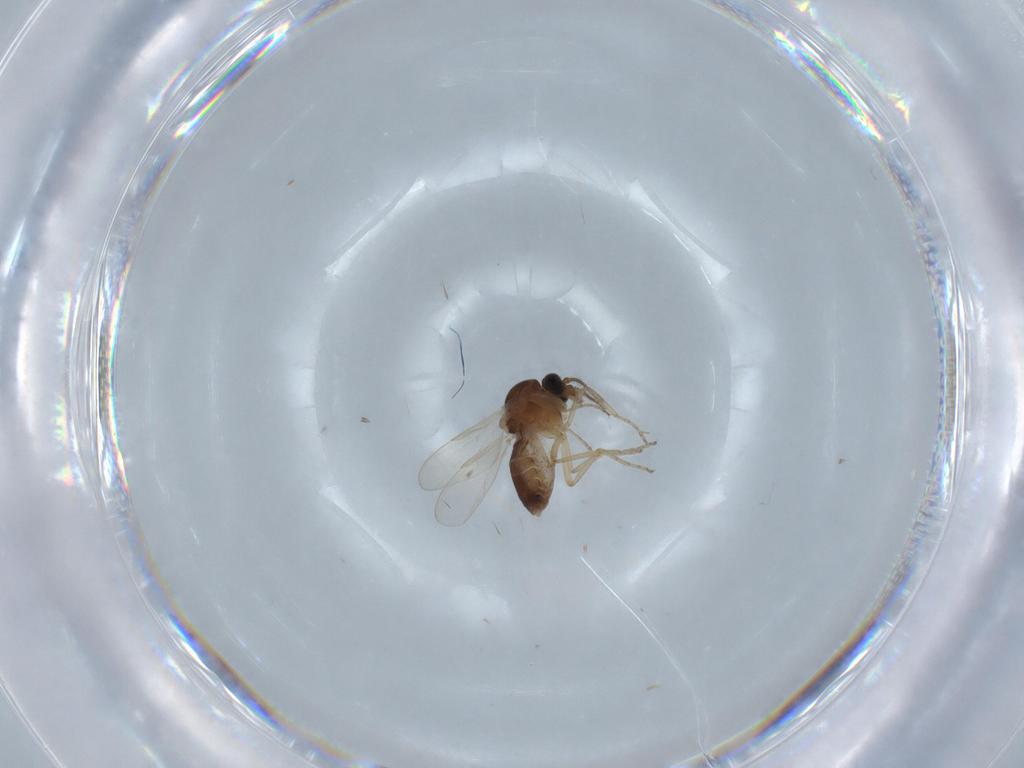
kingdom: Animalia
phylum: Arthropoda
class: Insecta
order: Diptera
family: Ceratopogonidae
